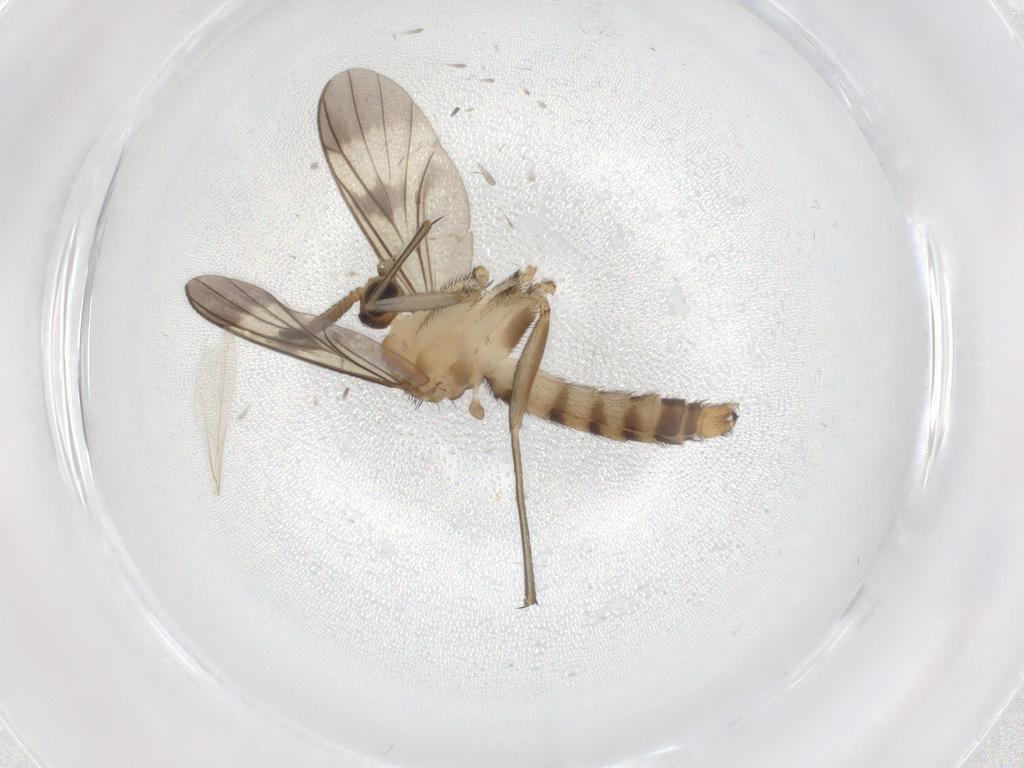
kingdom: Animalia
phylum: Arthropoda
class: Insecta
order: Diptera
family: Keroplatidae
